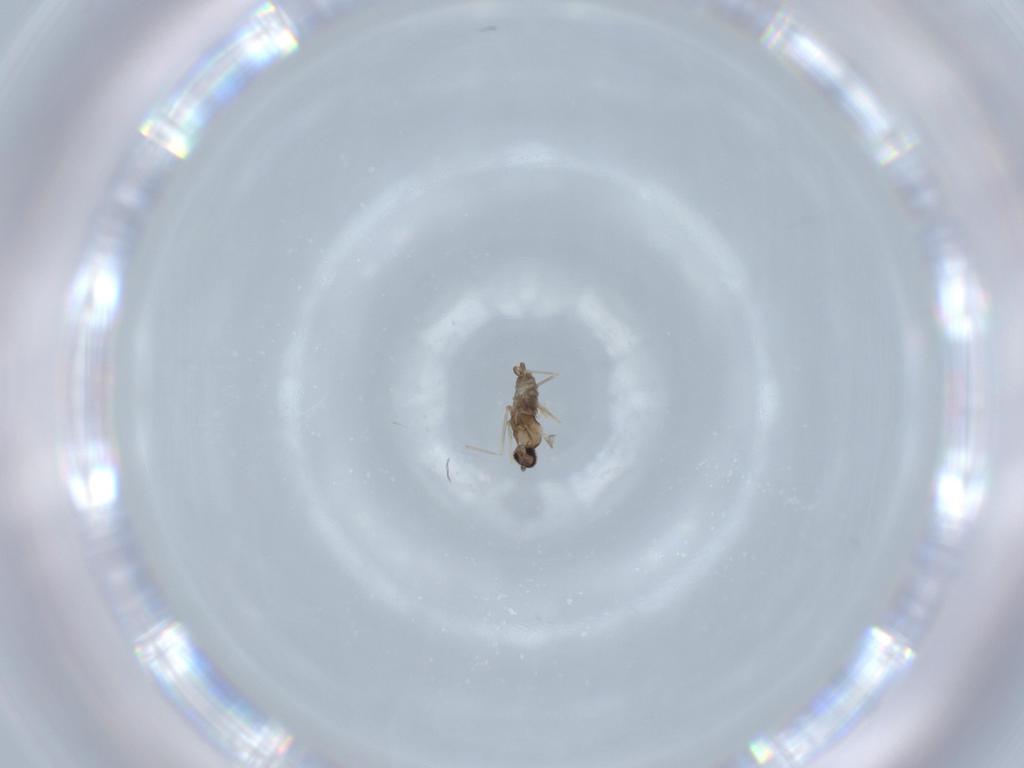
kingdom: Animalia
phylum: Arthropoda
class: Insecta
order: Diptera
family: Cecidomyiidae
